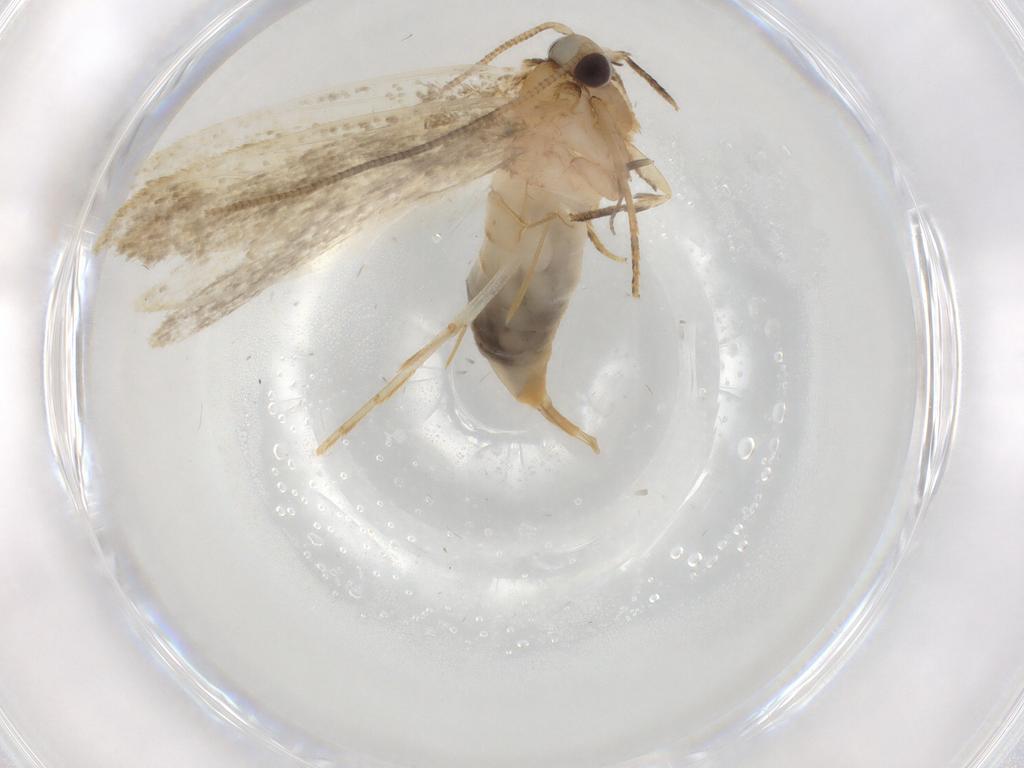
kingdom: Animalia
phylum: Arthropoda
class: Insecta
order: Lepidoptera
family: Tineidae
